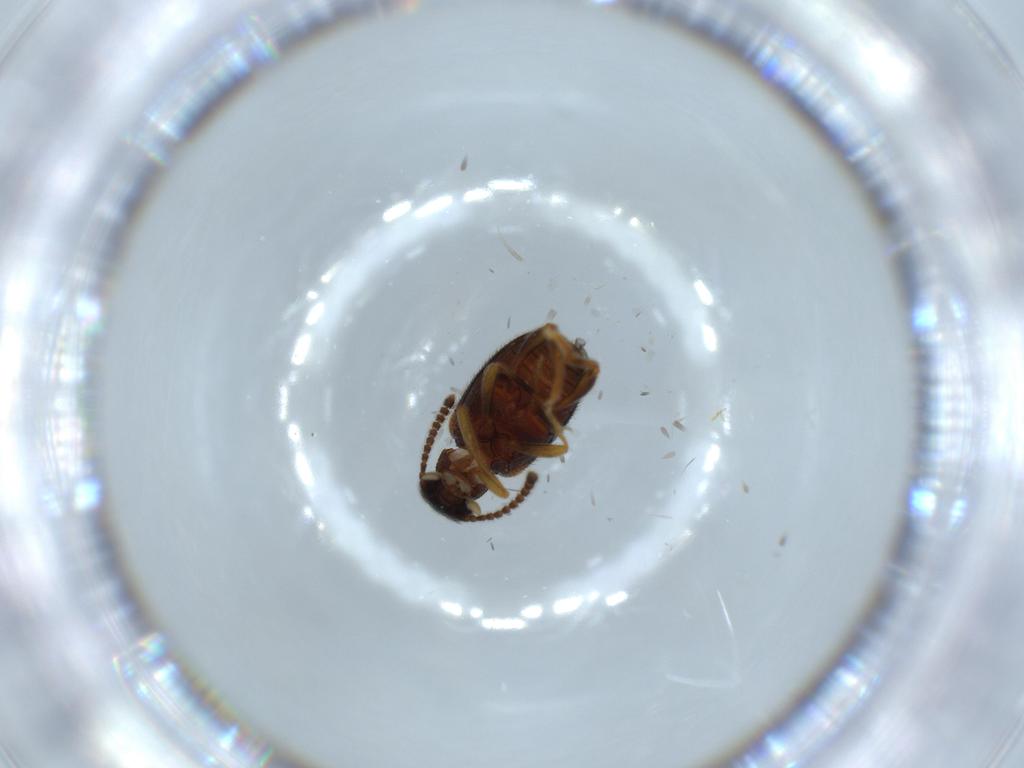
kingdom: Animalia
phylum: Arthropoda
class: Insecta
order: Coleoptera
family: Aderidae
